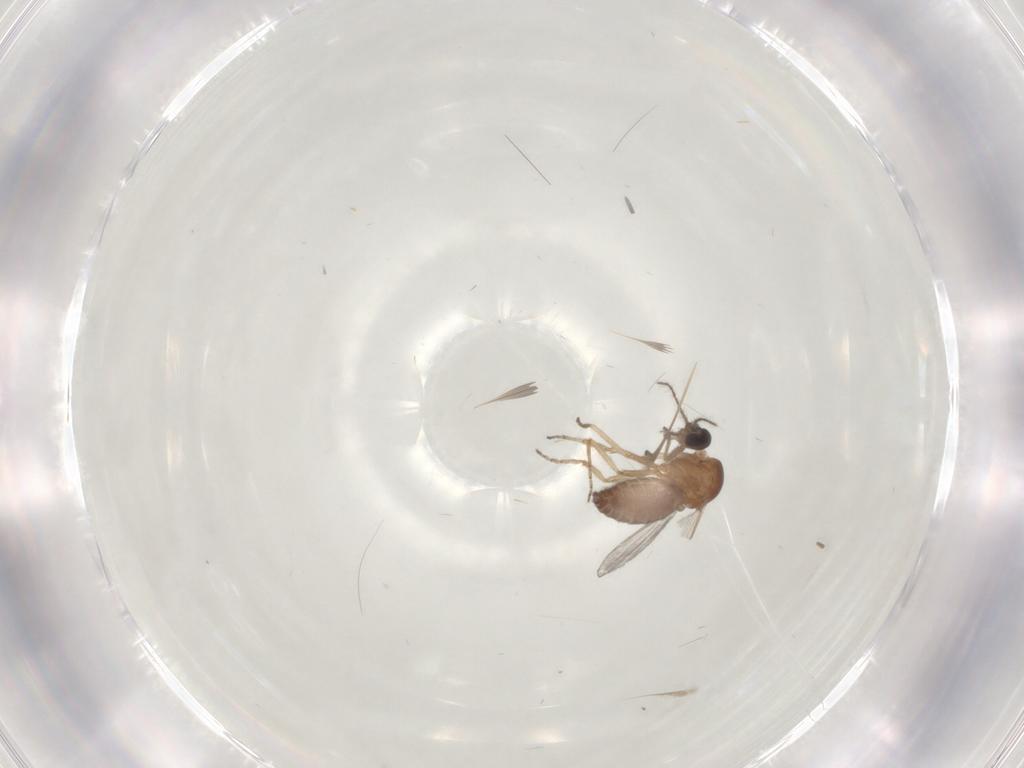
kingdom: Animalia
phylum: Arthropoda
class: Insecta
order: Diptera
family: Ceratopogonidae
